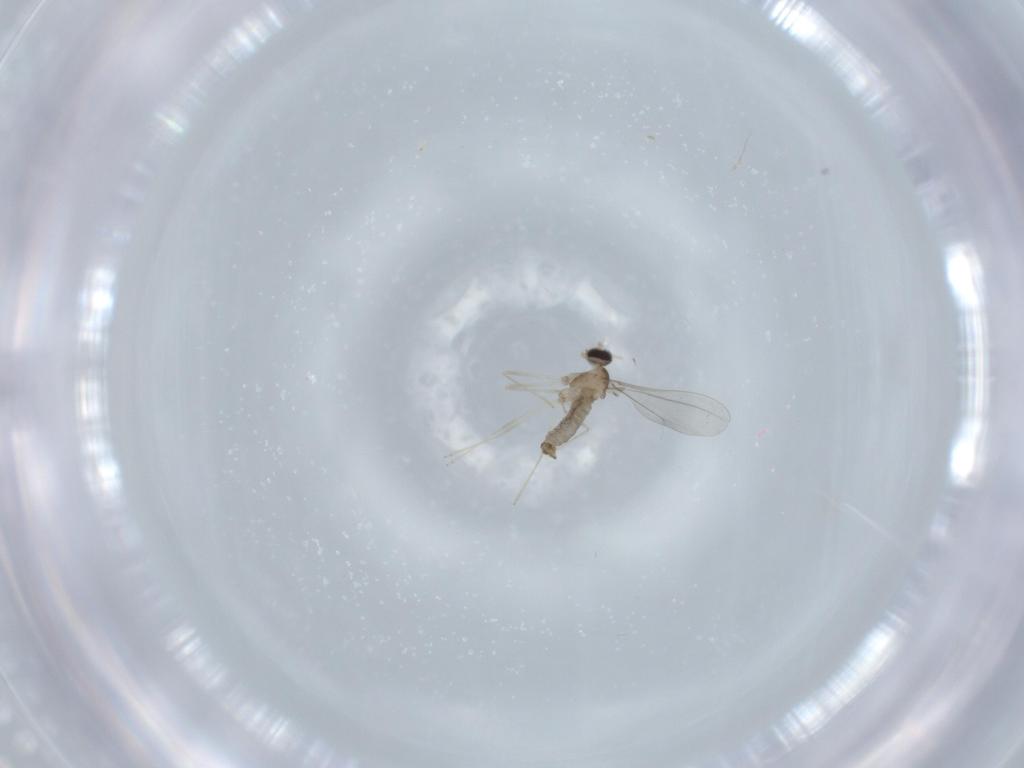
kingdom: Animalia
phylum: Arthropoda
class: Insecta
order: Diptera
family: Cecidomyiidae
